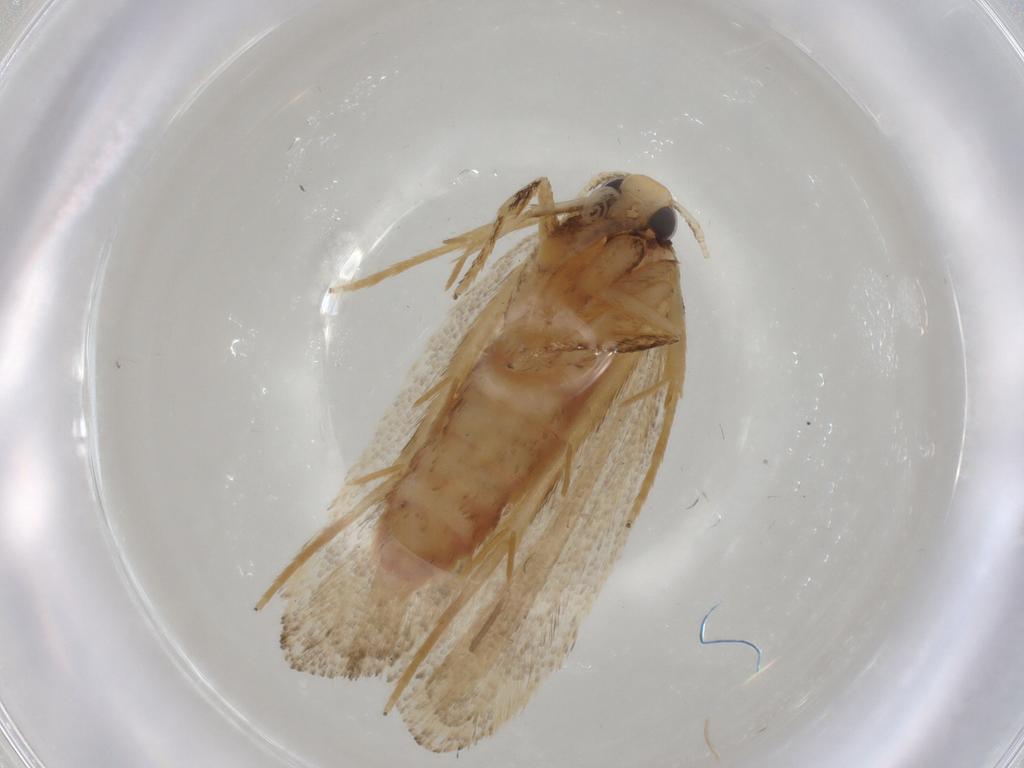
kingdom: Animalia
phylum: Arthropoda
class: Insecta
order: Lepidoptera
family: Lecithoceridae
